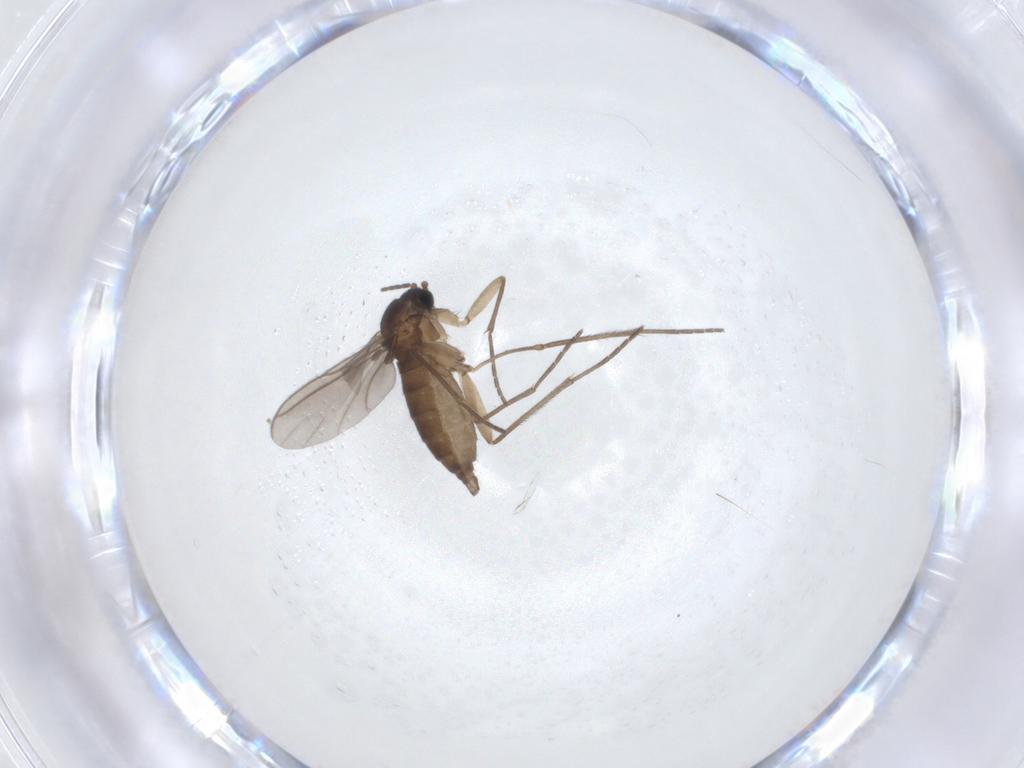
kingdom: Animalia
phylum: Arthropoda
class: Insecta
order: Diptera
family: Sciaridae
